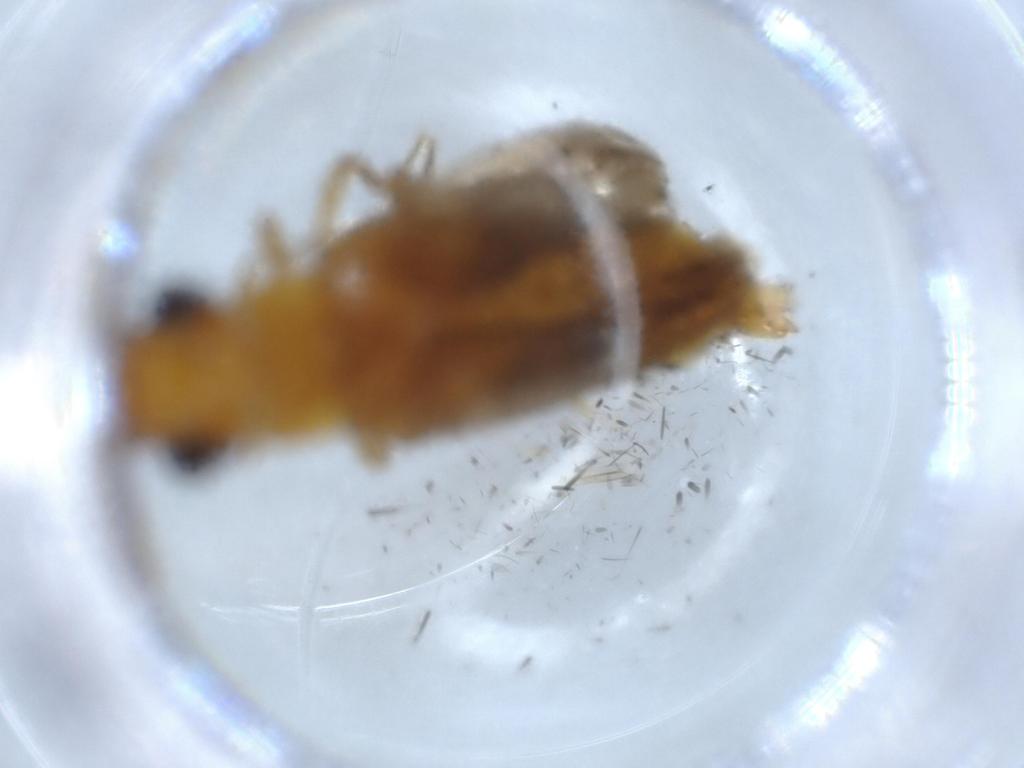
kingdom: Animalia
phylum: Arthropoda
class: Insecta
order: Coleoptera
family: Phengodidae
